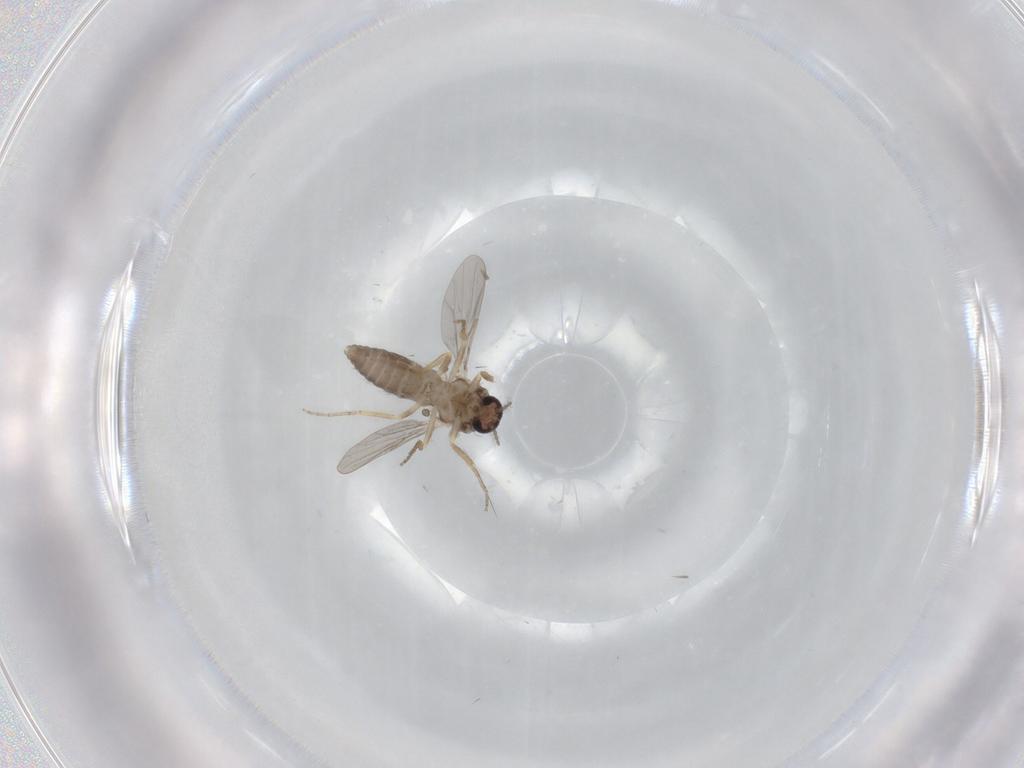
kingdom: Animalia
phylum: Arthropoda
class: Insecta
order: Diptera
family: Ceratopogonidae
